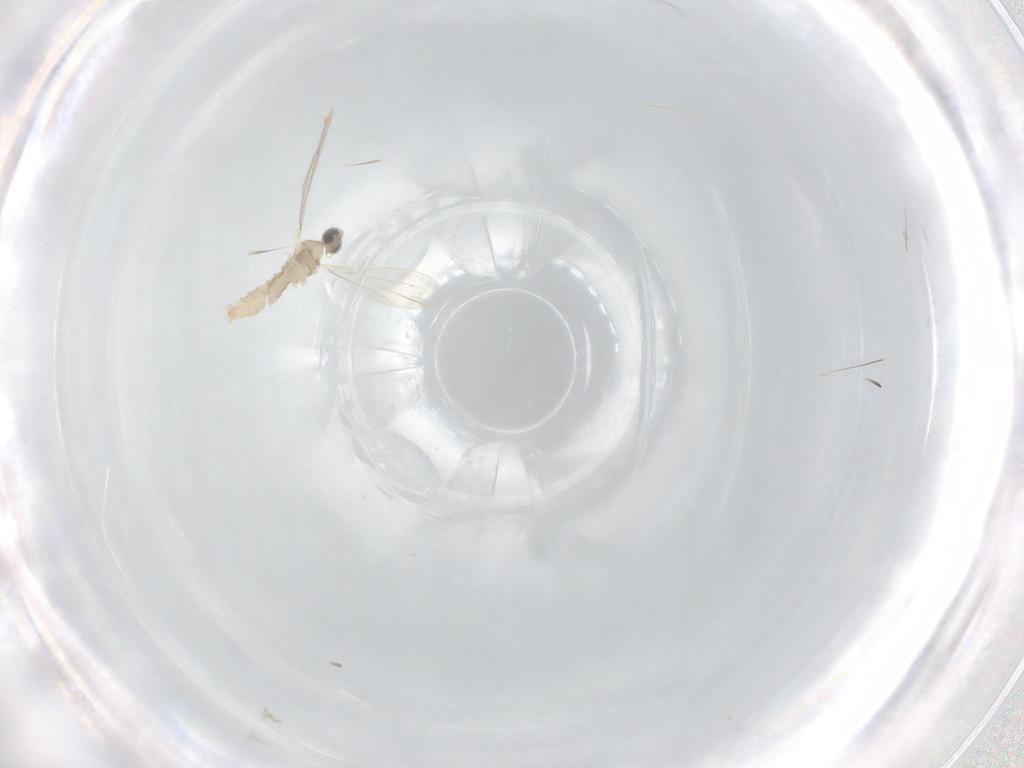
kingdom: Animalia
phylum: Arthropoda
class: Insecta
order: Diptera
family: Cecidomyiidae
